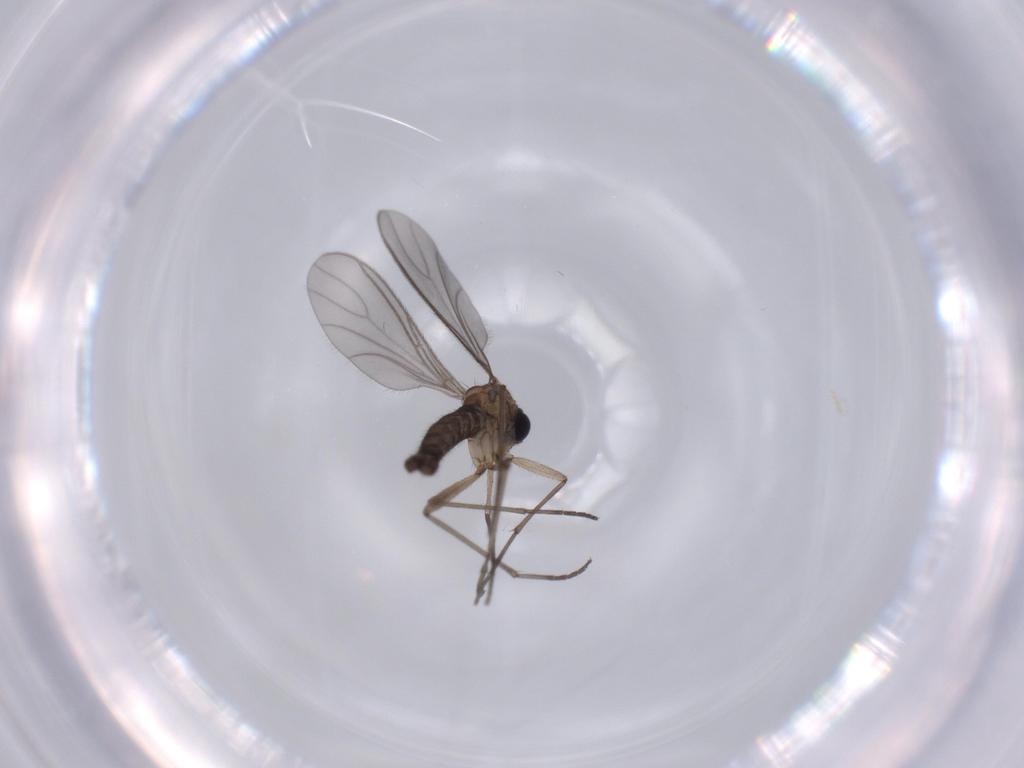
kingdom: Animalia
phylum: Arthropoda
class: Insecta
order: Diptera
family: Sciaridae
